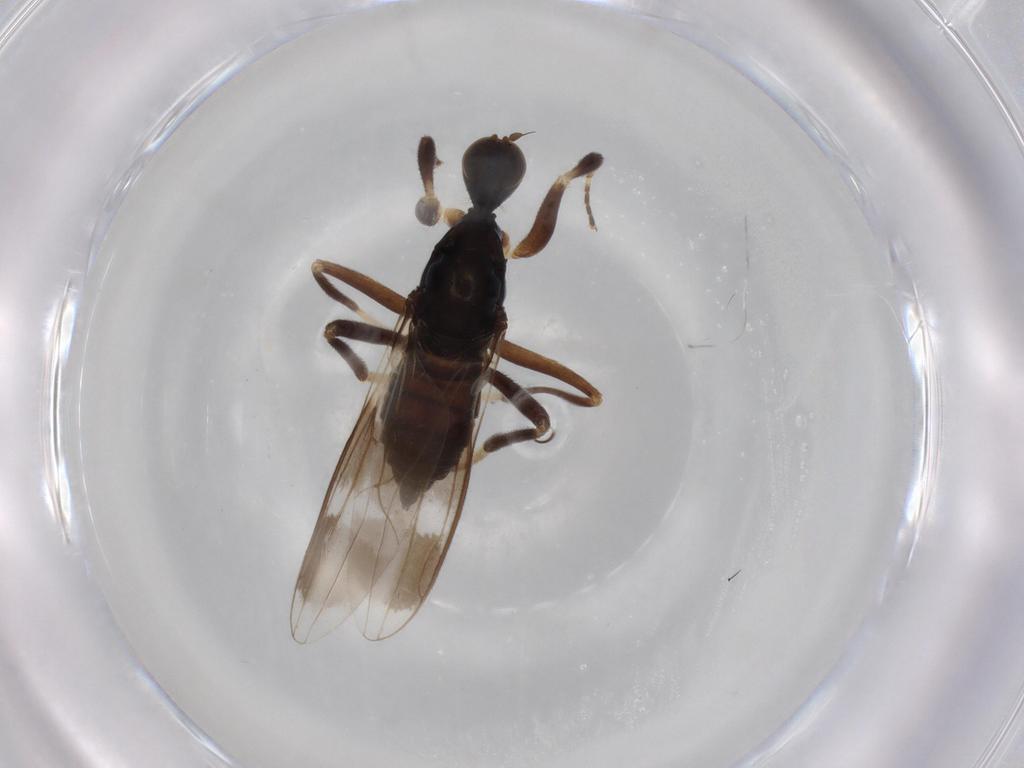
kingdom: Animalia
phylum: Arthropoda
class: Insecta
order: Diptera
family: Hybotidae
